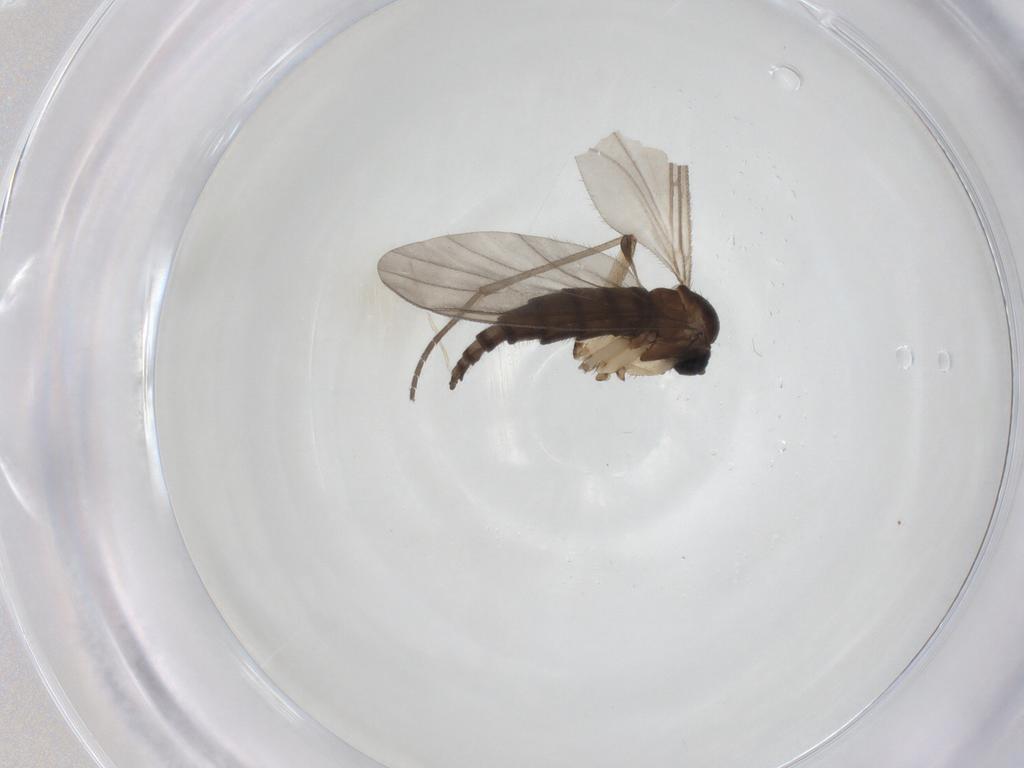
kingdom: Animalia
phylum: Arthropoda
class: Insecta
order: Diptera
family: Sciaridae
